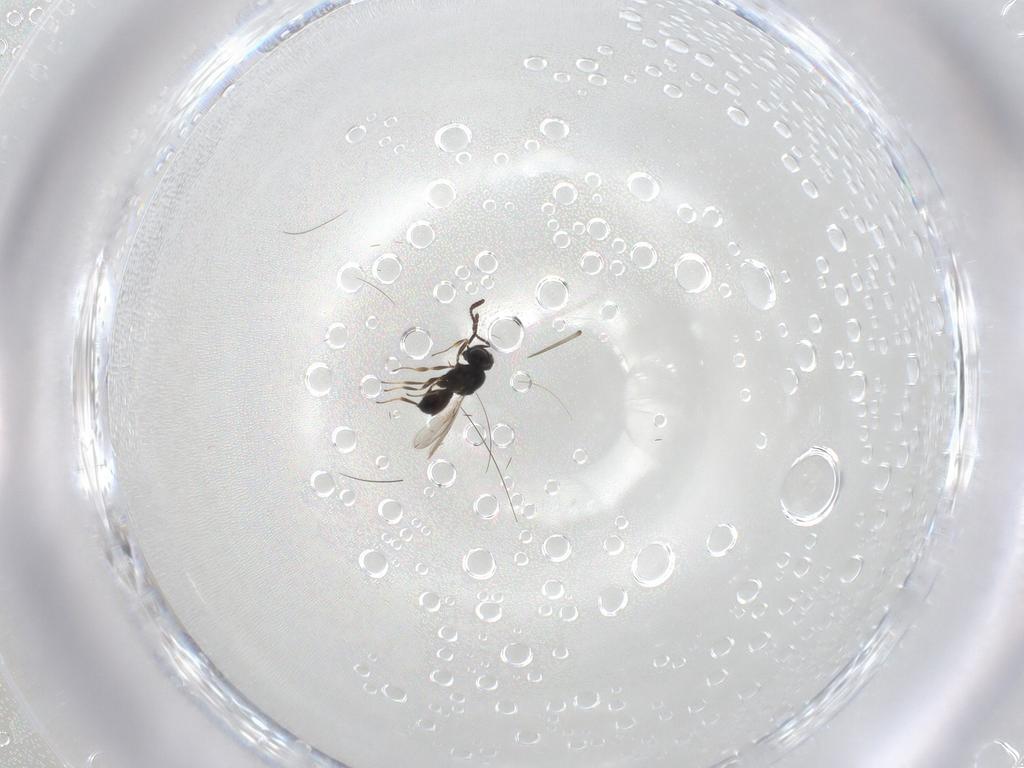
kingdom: Animalia
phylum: Arthropoda
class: Insecta
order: Hymenoptera
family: Scelionidae
